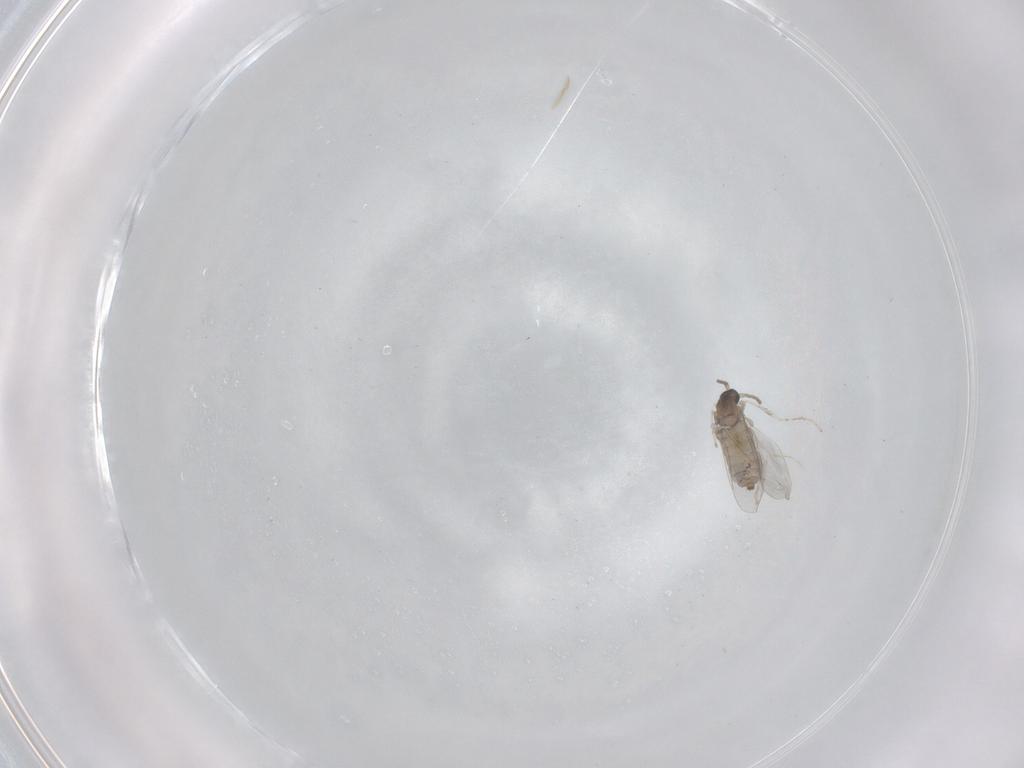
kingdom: Animalia
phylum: Arthropoda
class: Insecta
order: Diptera
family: Cecidomyiidae
